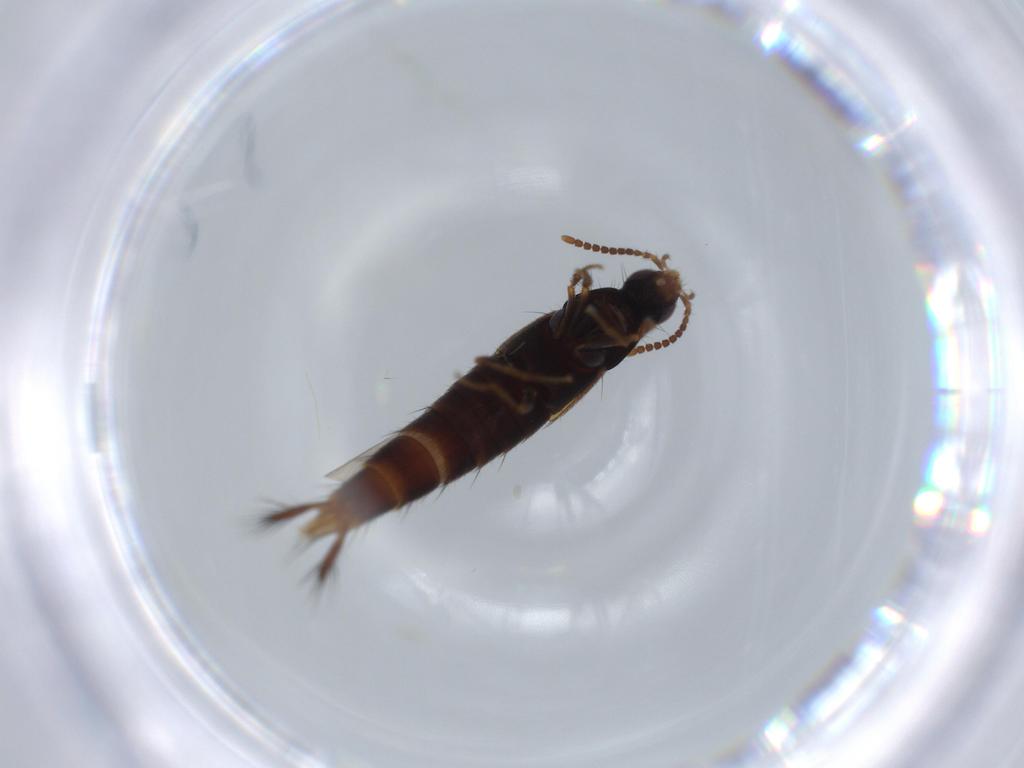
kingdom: Animalia
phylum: Arthropoda
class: Insecta
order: Coleoptera
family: Staphylinidae
